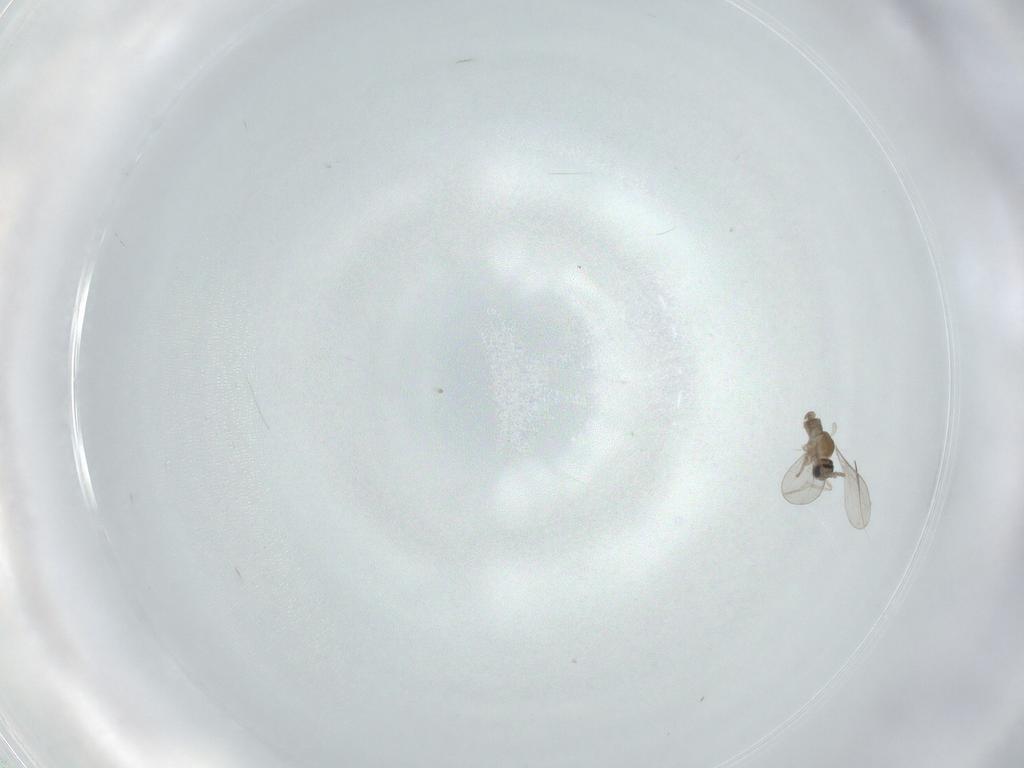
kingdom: Animalia
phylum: Arthropoda
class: Insecta
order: Diptera
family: Cecidomyiidae
